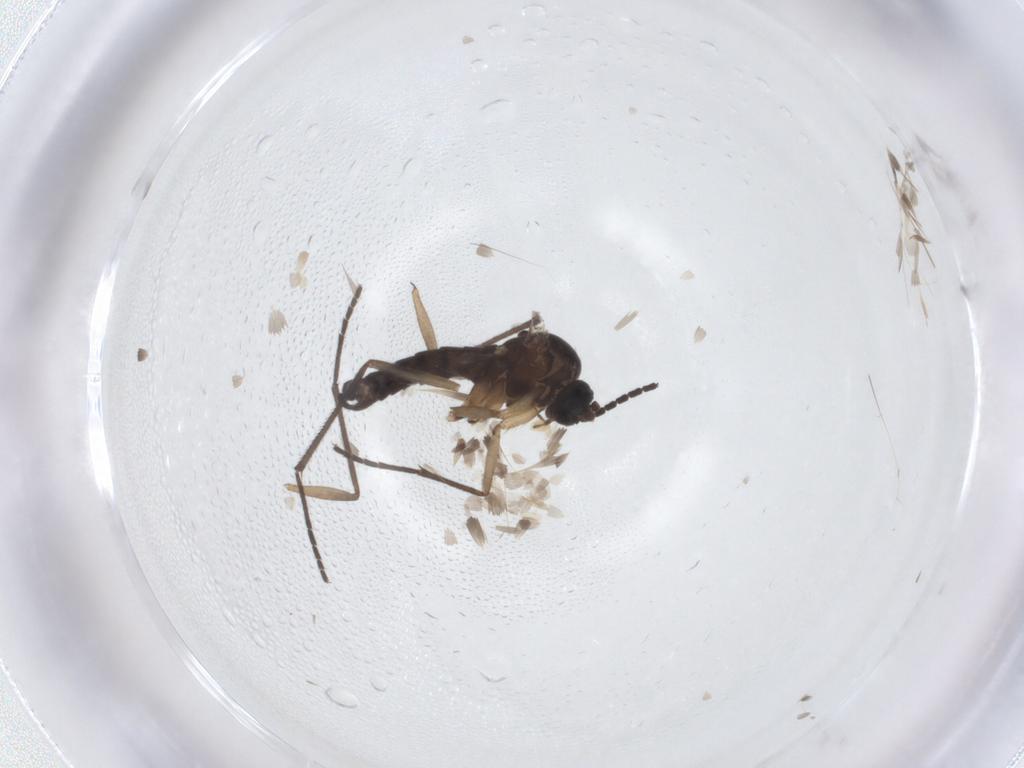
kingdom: Animalia
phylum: Arthropoda
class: Insecta
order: Diptera
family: Sciaridae
